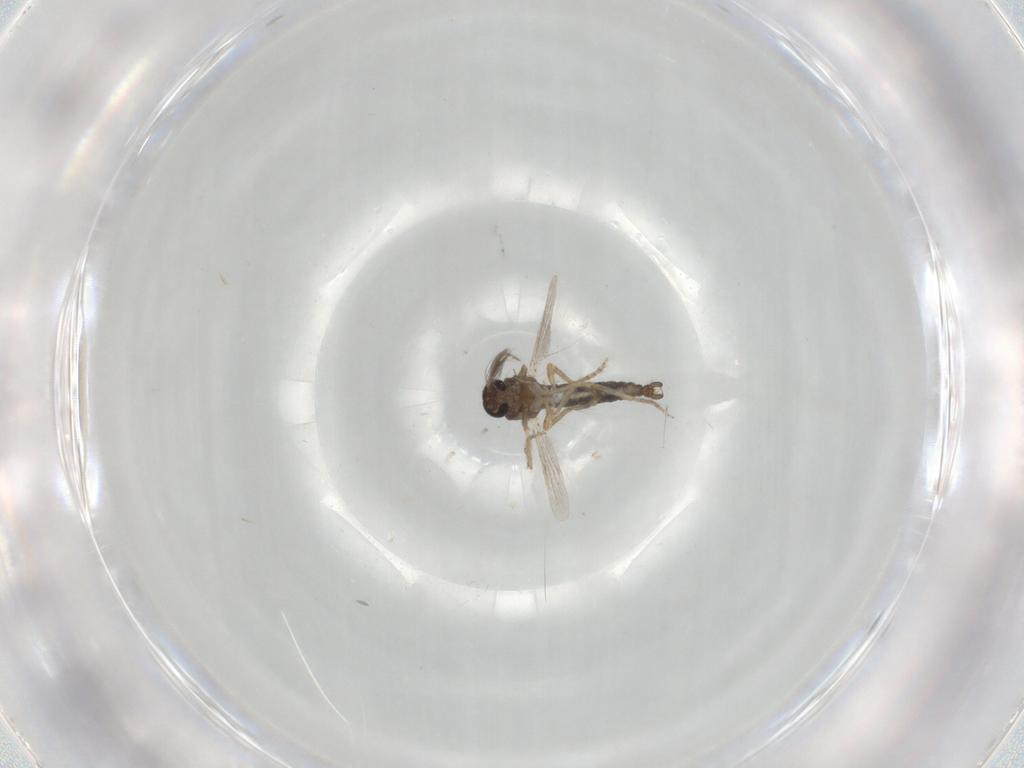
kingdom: Animalia
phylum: Arthropoda
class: Insecta
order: Diptera
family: Ceratopogonidae
